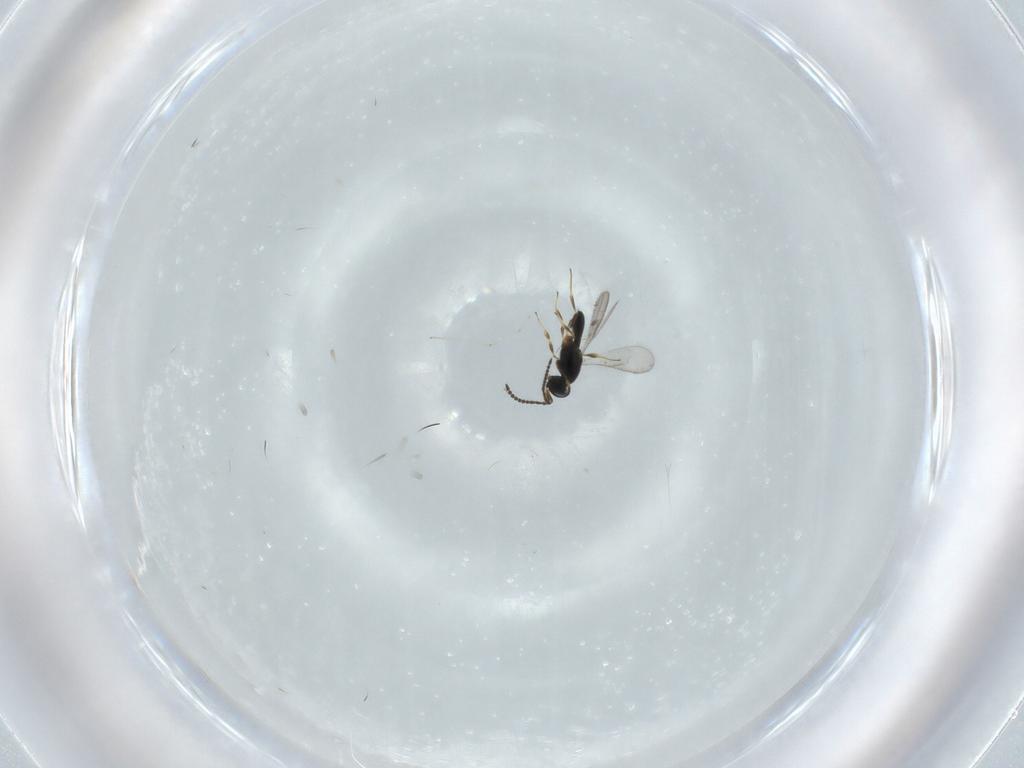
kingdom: Animalia
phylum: Arthropoda
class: Insecta
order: Hymenoptera
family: Scelionidae
